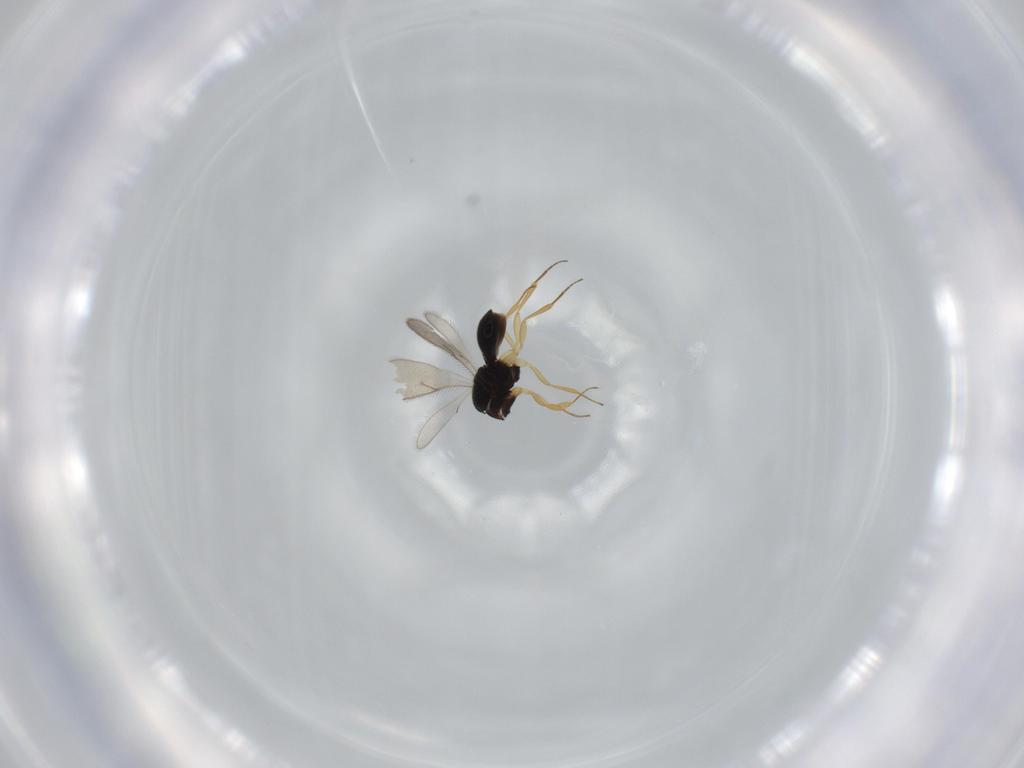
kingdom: Animalia
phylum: Arthropoda
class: Insecta
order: Hymenoptera
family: Scelionidae
